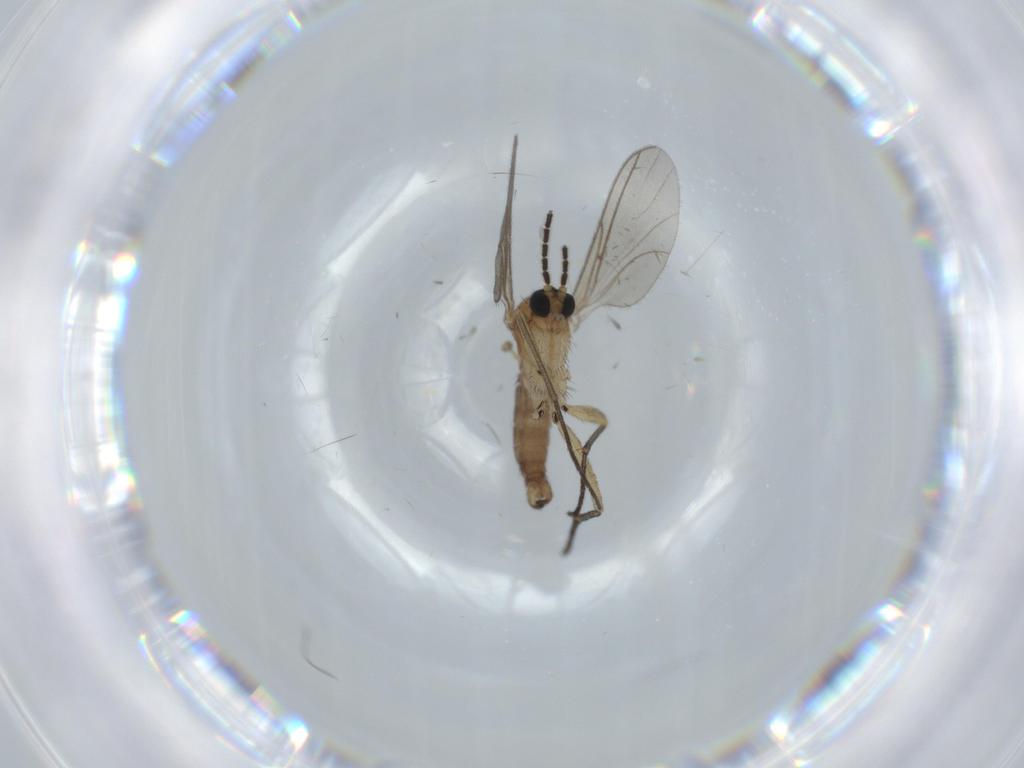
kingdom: Animalia
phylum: Arthropoda
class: Insecta
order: Diptera
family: Sciaridae
